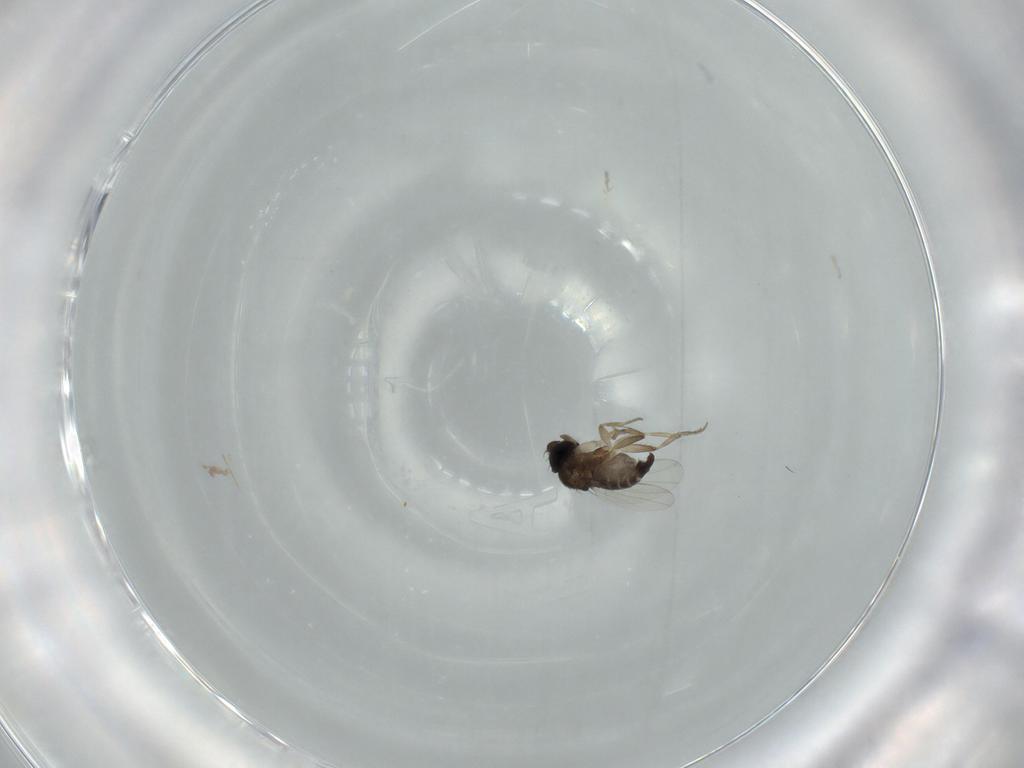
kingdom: Animalia
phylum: Arthropoda
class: Insecta
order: Diptera
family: Phoridae
